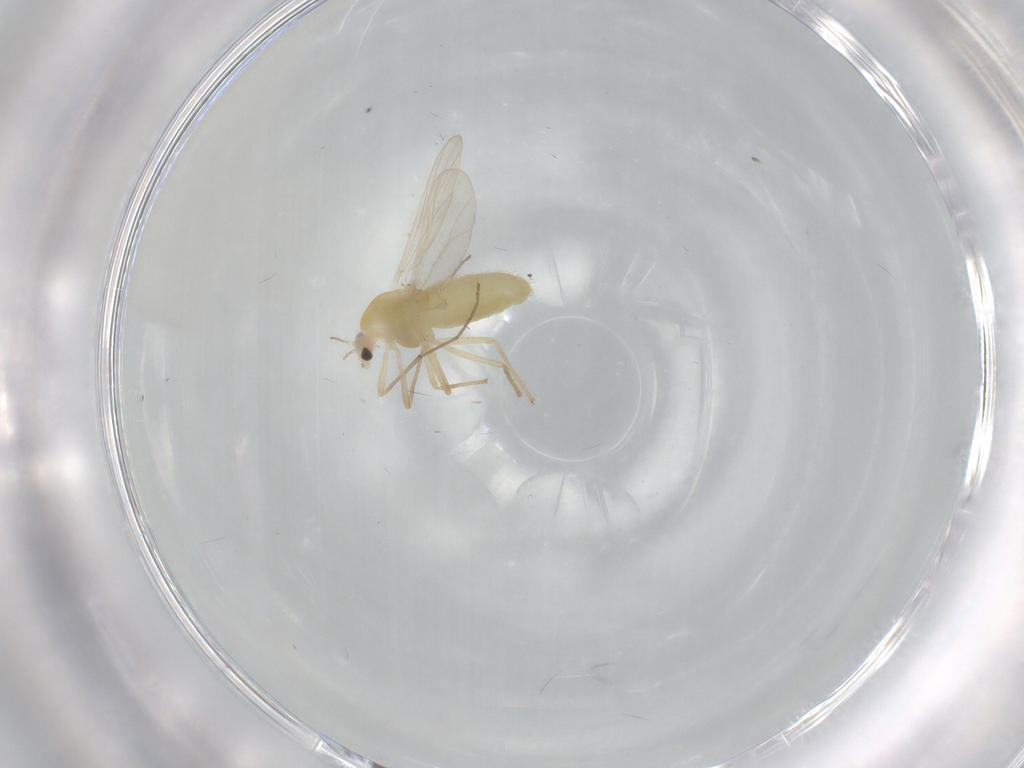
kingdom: Animalia
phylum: Arthropoda
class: Insecta
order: Diptera
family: Chironomidae
